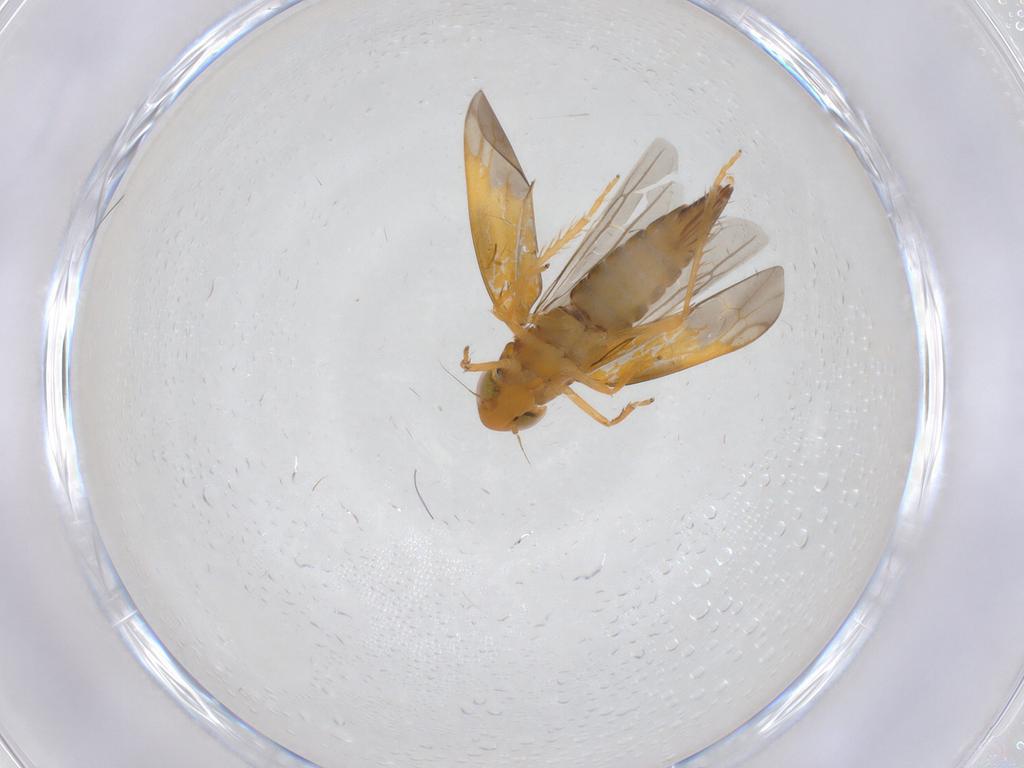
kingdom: Animalia
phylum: Arthropoda
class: Insecta
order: Hemiptera
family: Cicadellidae
